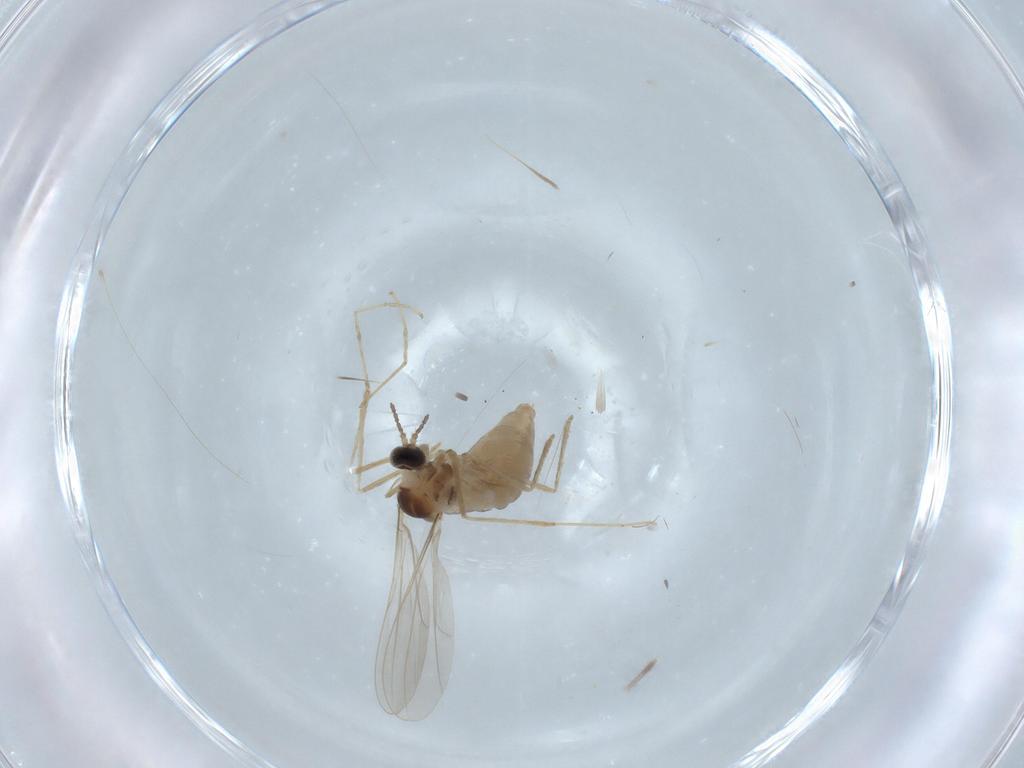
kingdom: Animalia
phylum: Arthropoda
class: Insecta
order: Diptera
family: Cecidomyiidae
